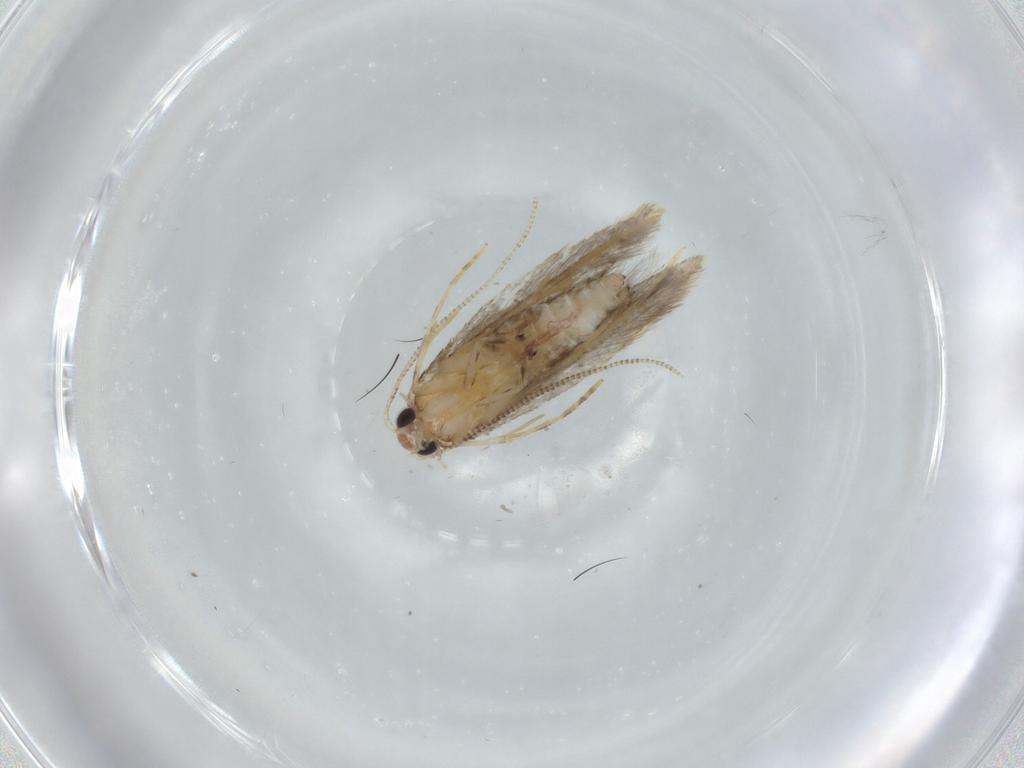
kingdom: Animalia
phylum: Arthropoda
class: Insecta
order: Lepidoptera
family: Tineidae
